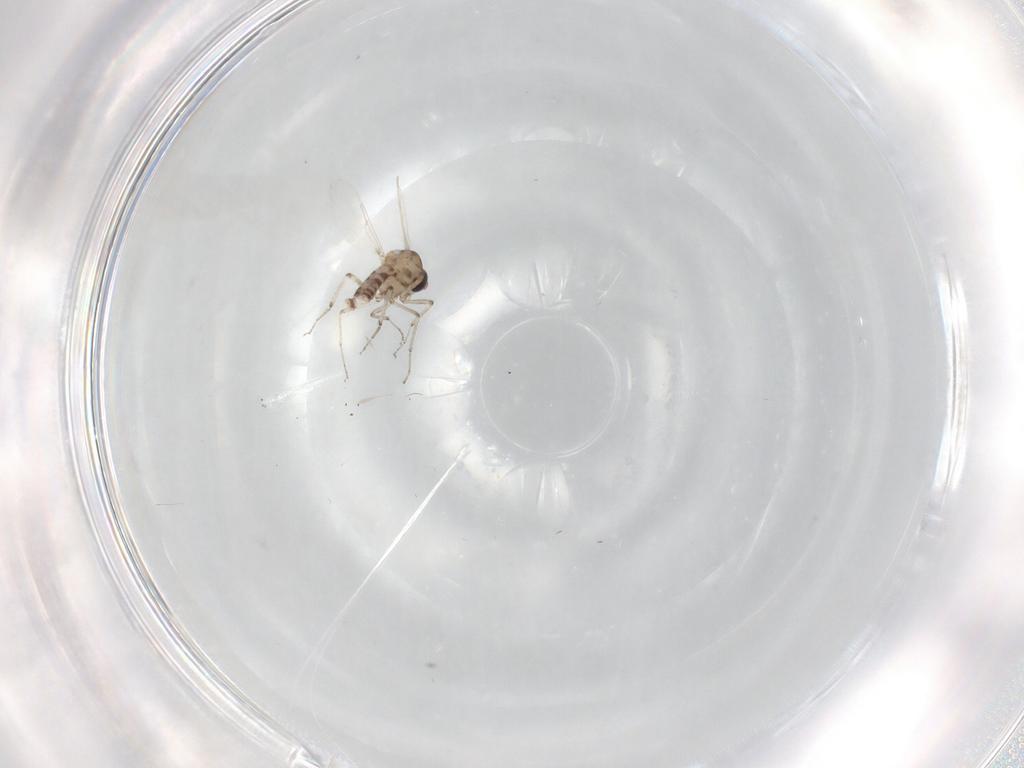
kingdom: Animalia
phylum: Arthropoda
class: Insecta
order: Diptera
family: Ceratopogonidae
